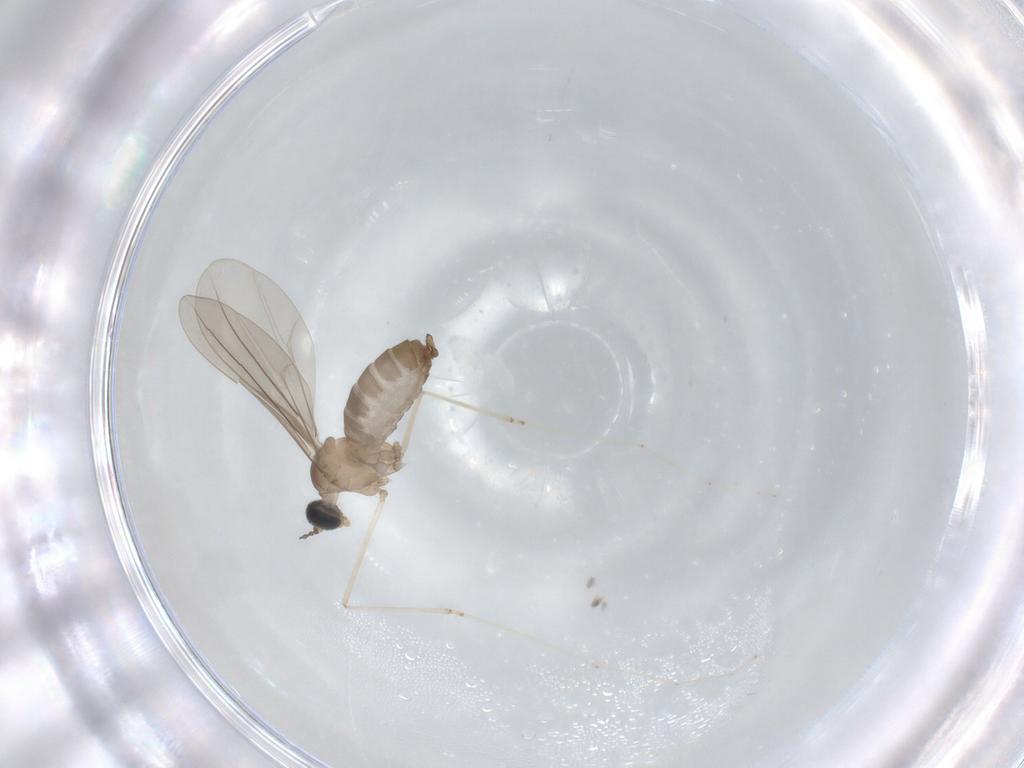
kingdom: Animalia
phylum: Arthropoda
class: Insecta
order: Diptera
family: Cecidomyiidae
